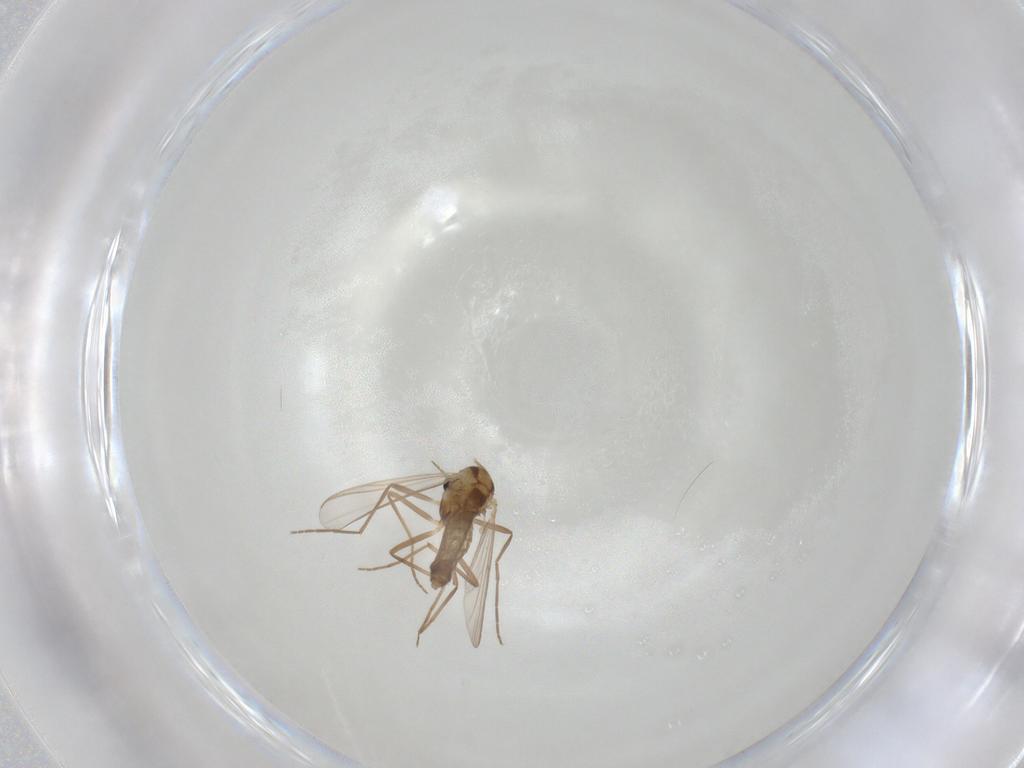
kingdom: Animalia
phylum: Arthropoda
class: Insecta
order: Diptera
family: Chironomidae
